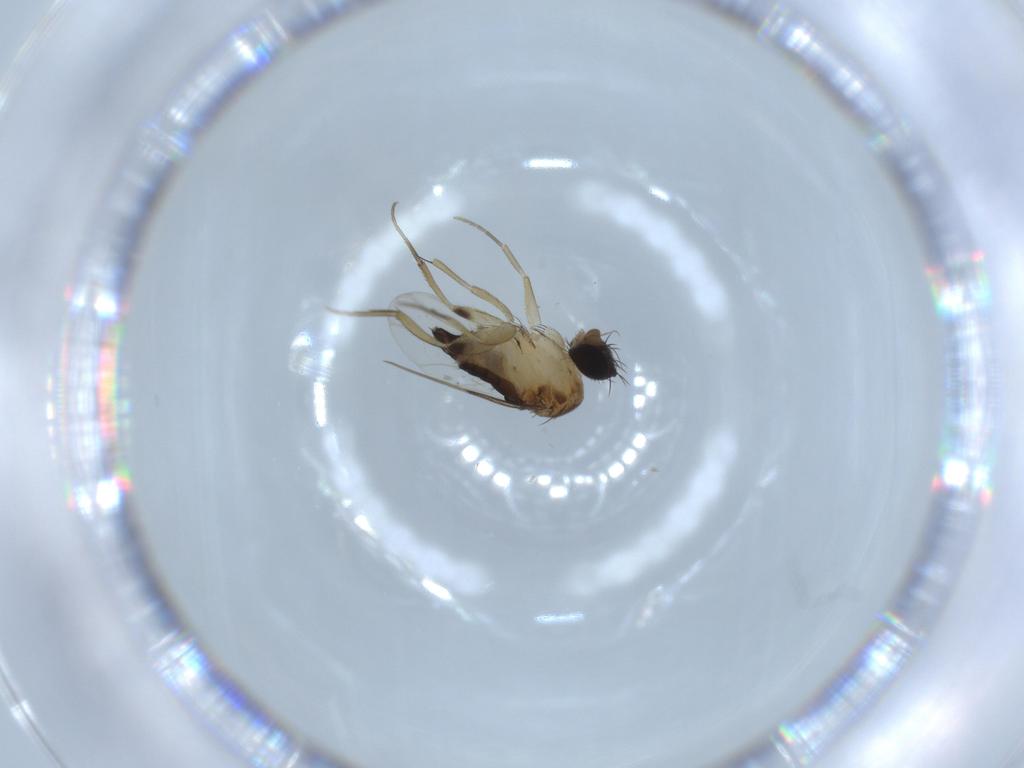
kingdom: Animalia
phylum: Arthropoda
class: Insecta
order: Diptera
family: Phoridae
